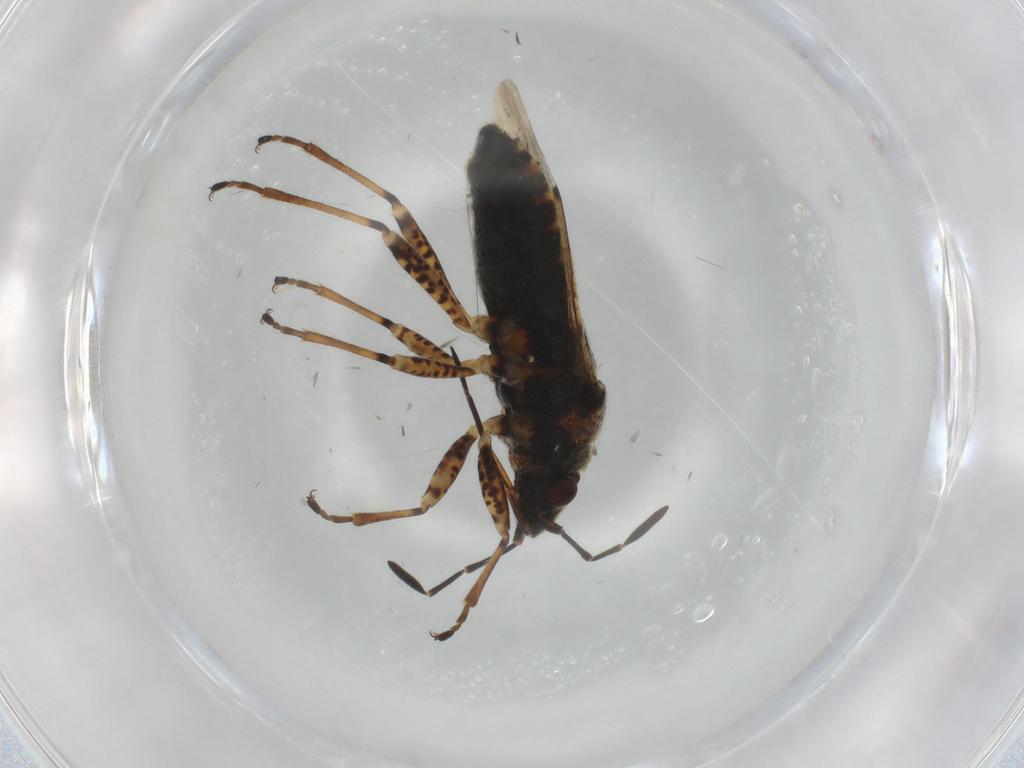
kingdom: Animalia
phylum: Arthropoda
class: Insecta
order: Hemiptera
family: Lygaeidae
